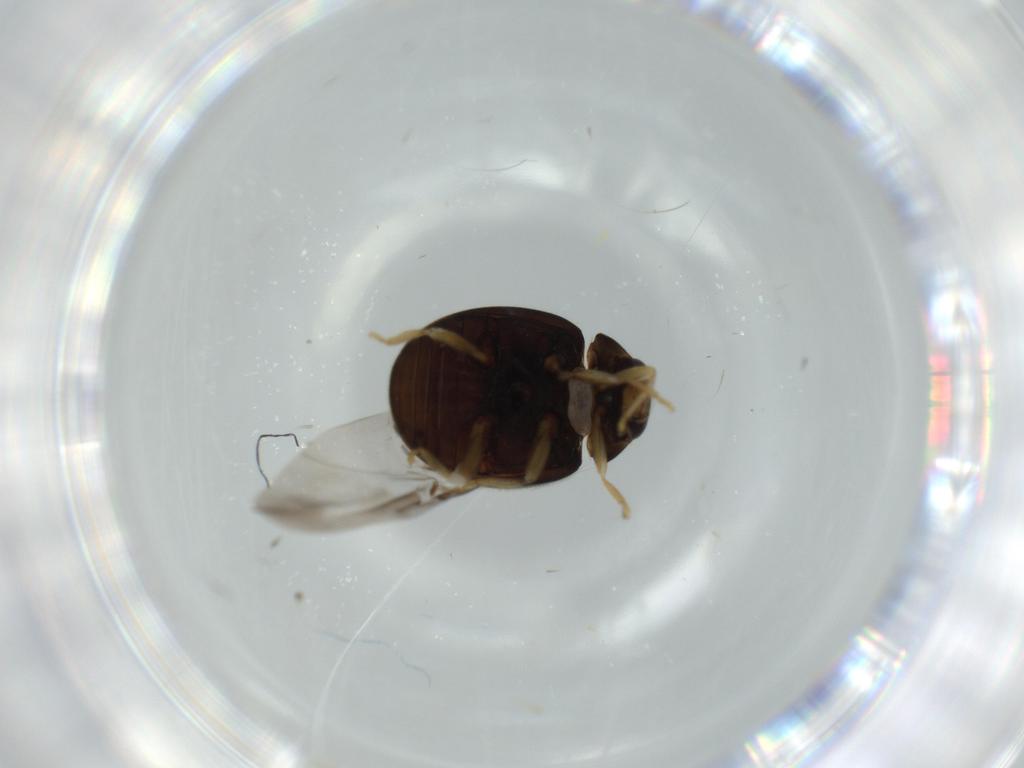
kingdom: Animalia
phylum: Arthropoda
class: Insecta
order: Coleoptera
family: Coccinellidae
